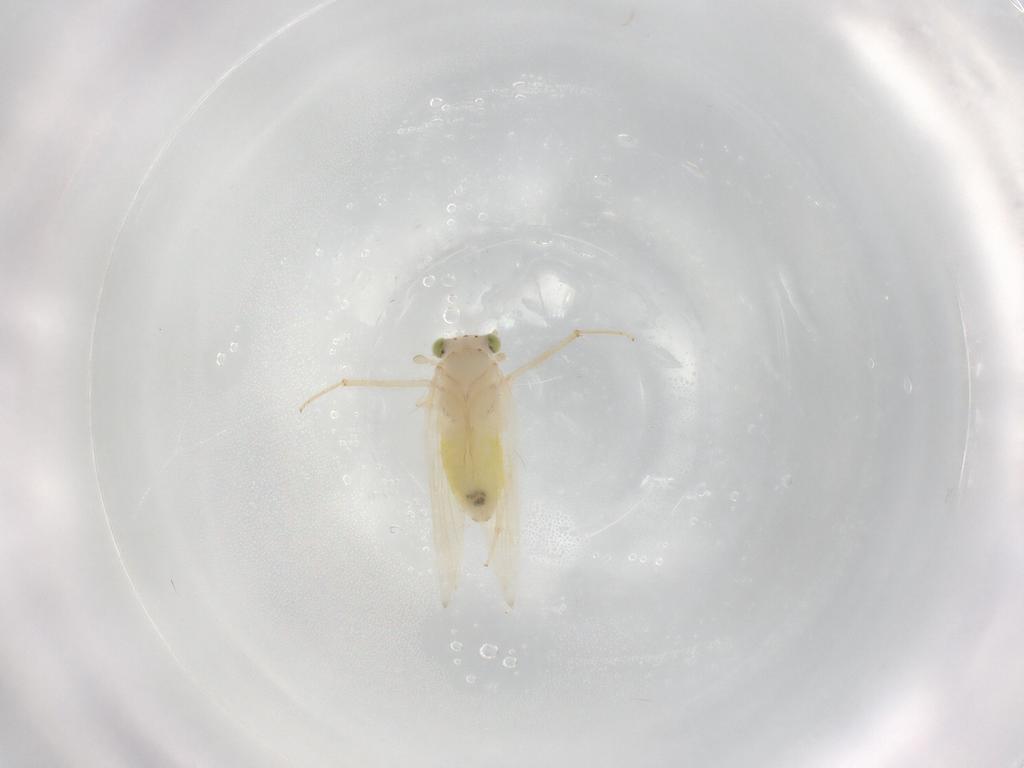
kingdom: Animalia
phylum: Arthropoda
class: Insecta
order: Psocodea
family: Lepidopsocidae
